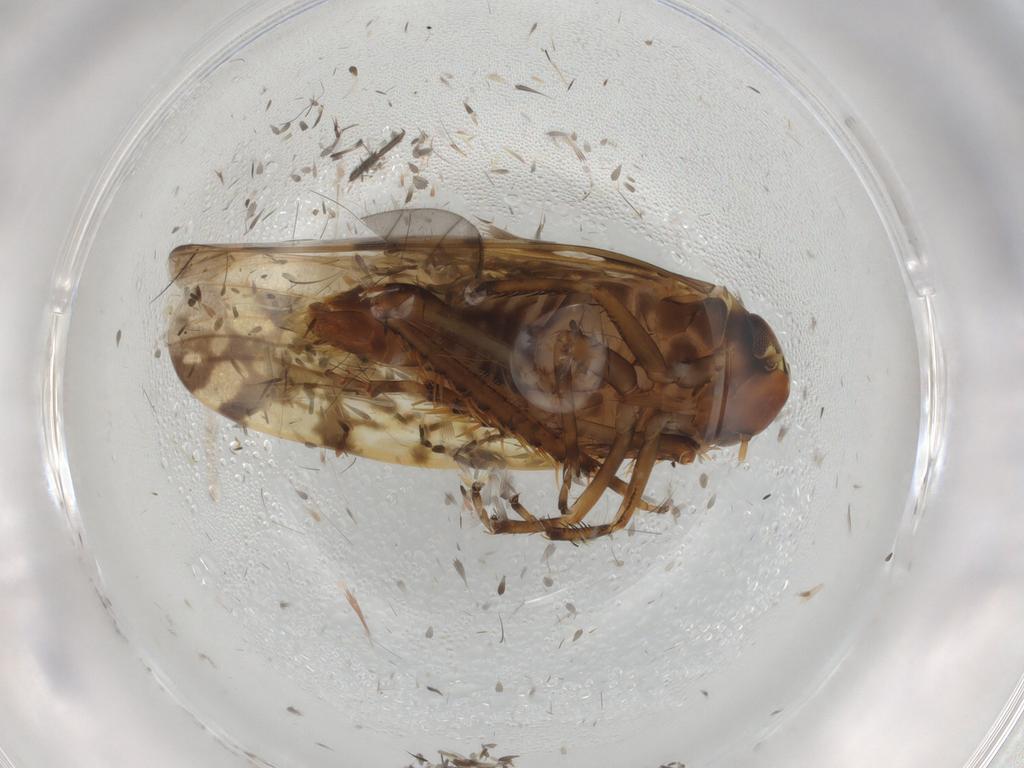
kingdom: Animalia
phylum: Arthropoda
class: Insecta
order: Hemiptera
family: Cicadellidae
